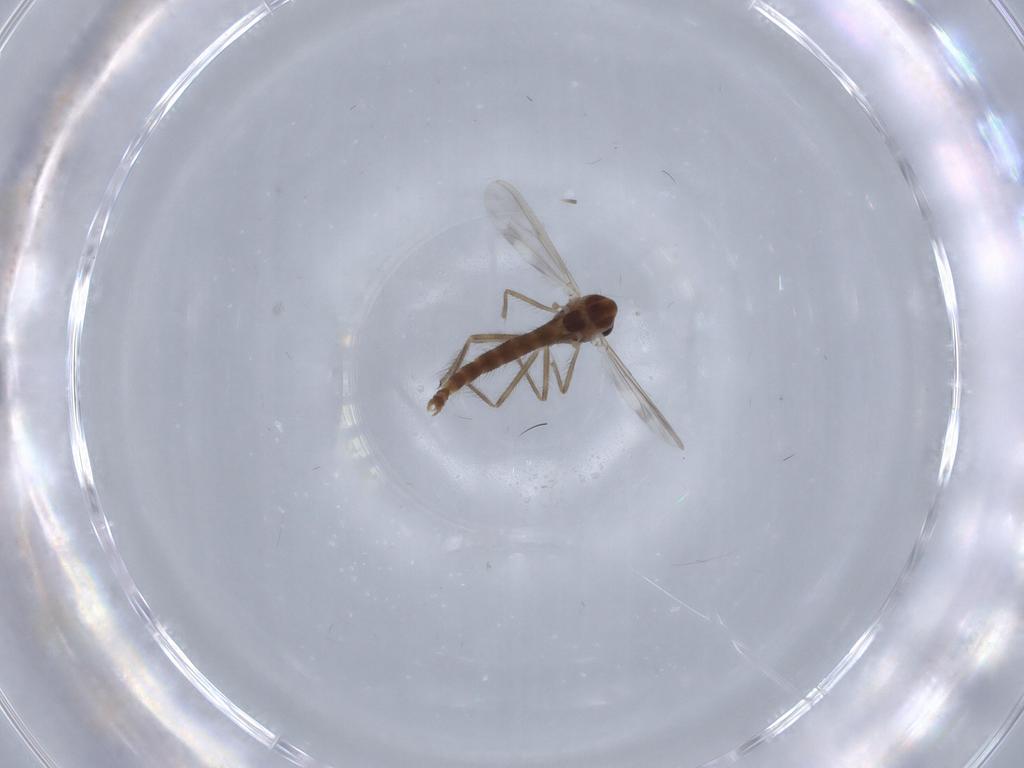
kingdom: Animalia
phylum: Arthropoda
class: Insecta
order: Diptera
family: Chironomidae
